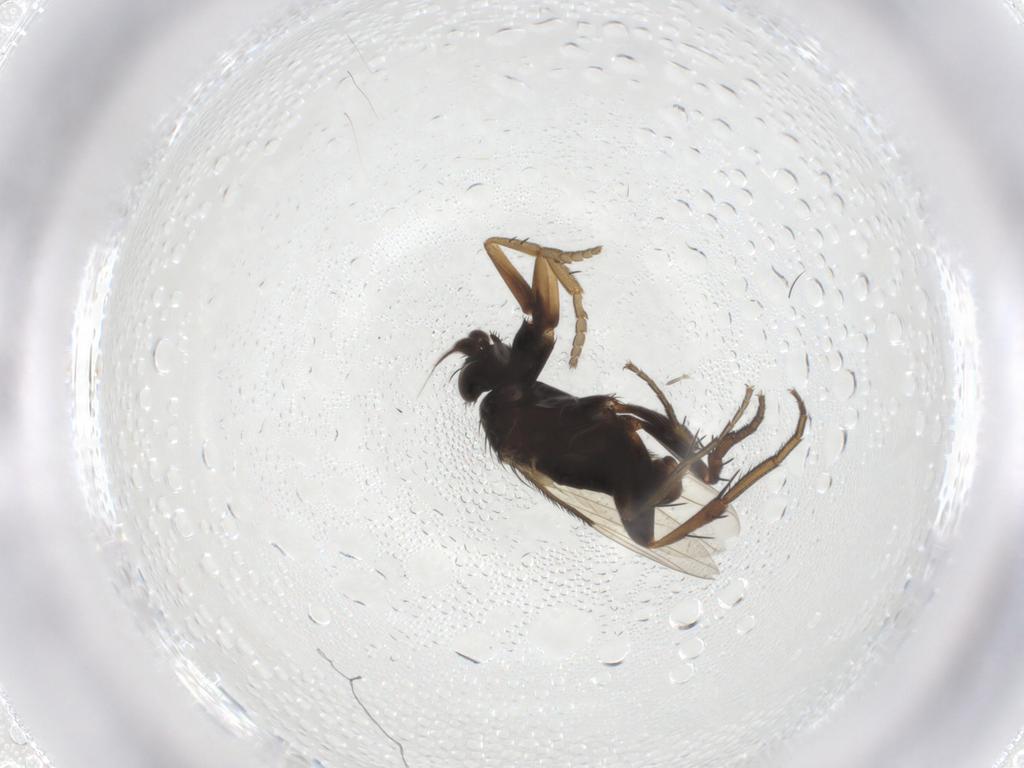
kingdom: Animalia
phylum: Arthropoda
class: Insecta
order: Diptera
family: Phoridae
